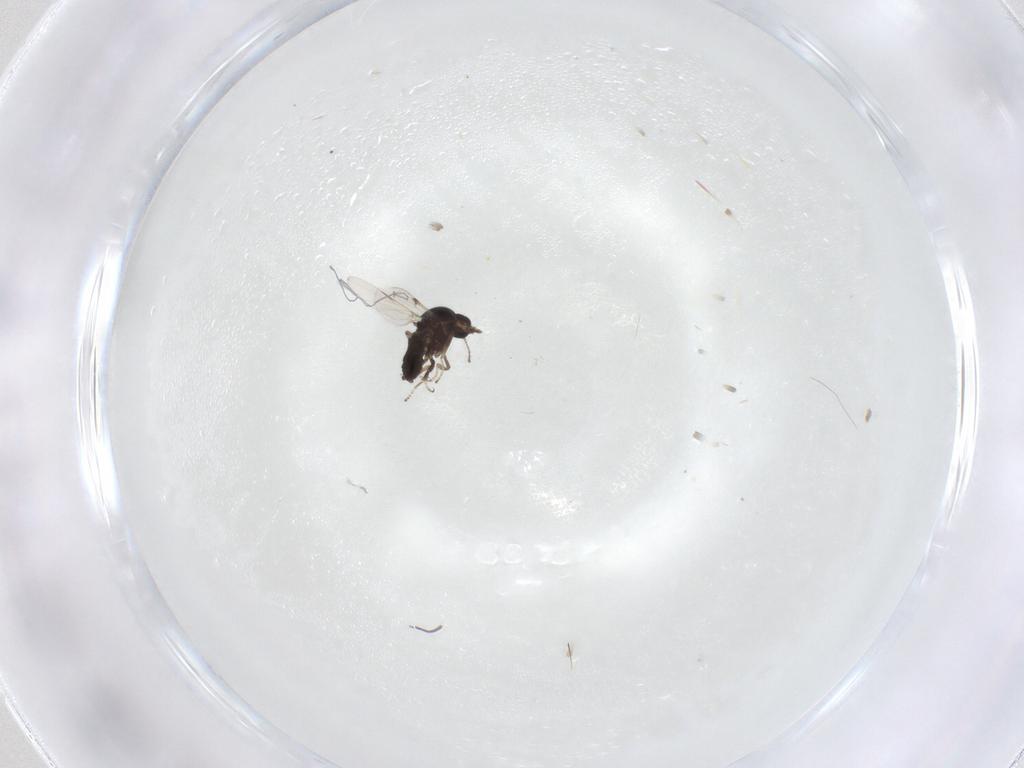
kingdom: Animalia
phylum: Arthropoda
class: Insecta
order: Diptera
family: Ceratopogonidae
